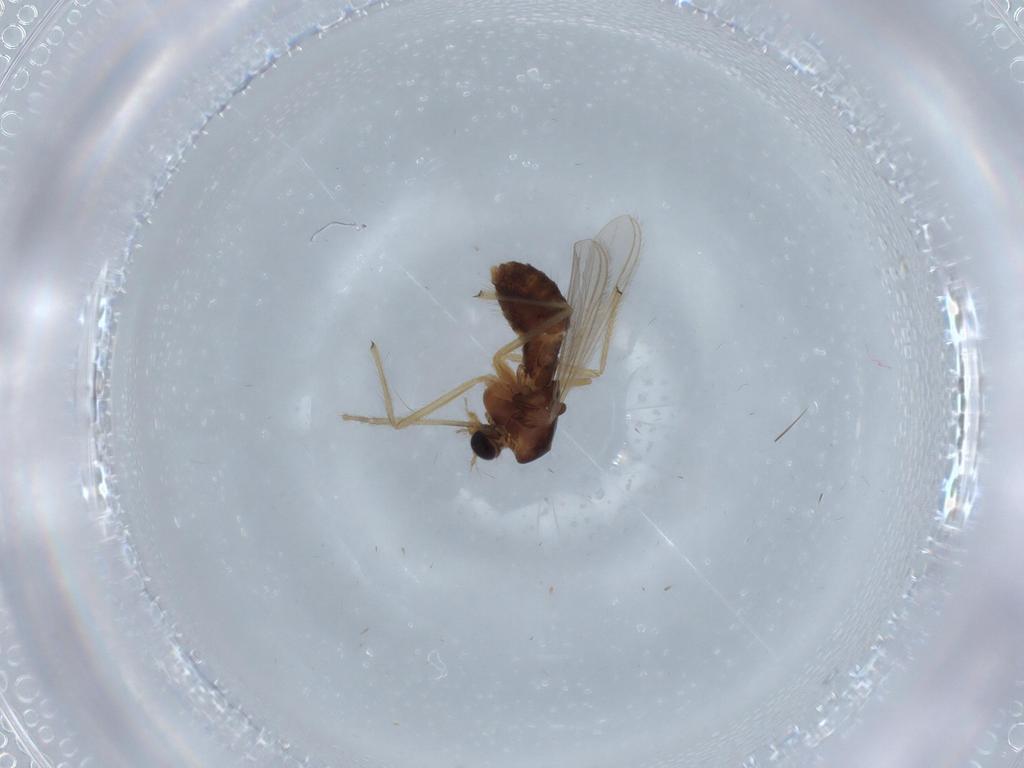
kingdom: Animalia
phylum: Arthropoda
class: Insecta
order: Diptera
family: Chironomidae
